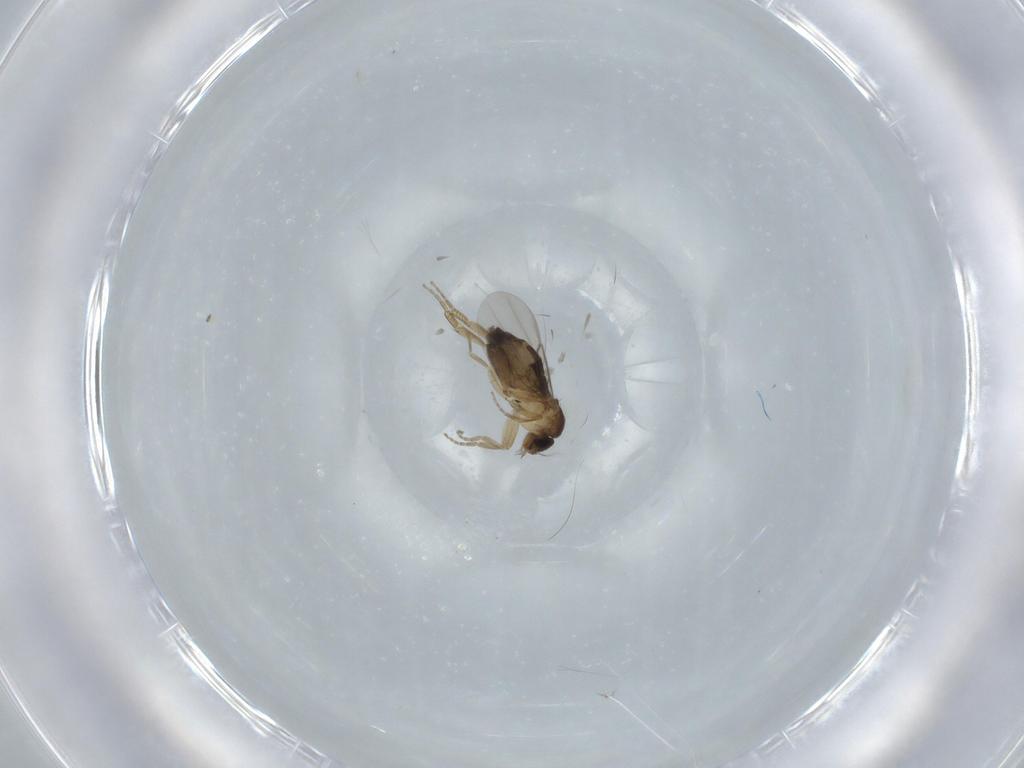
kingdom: Animalia
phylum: Arthropoda
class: Insecta
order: Diptera
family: Phoridae
